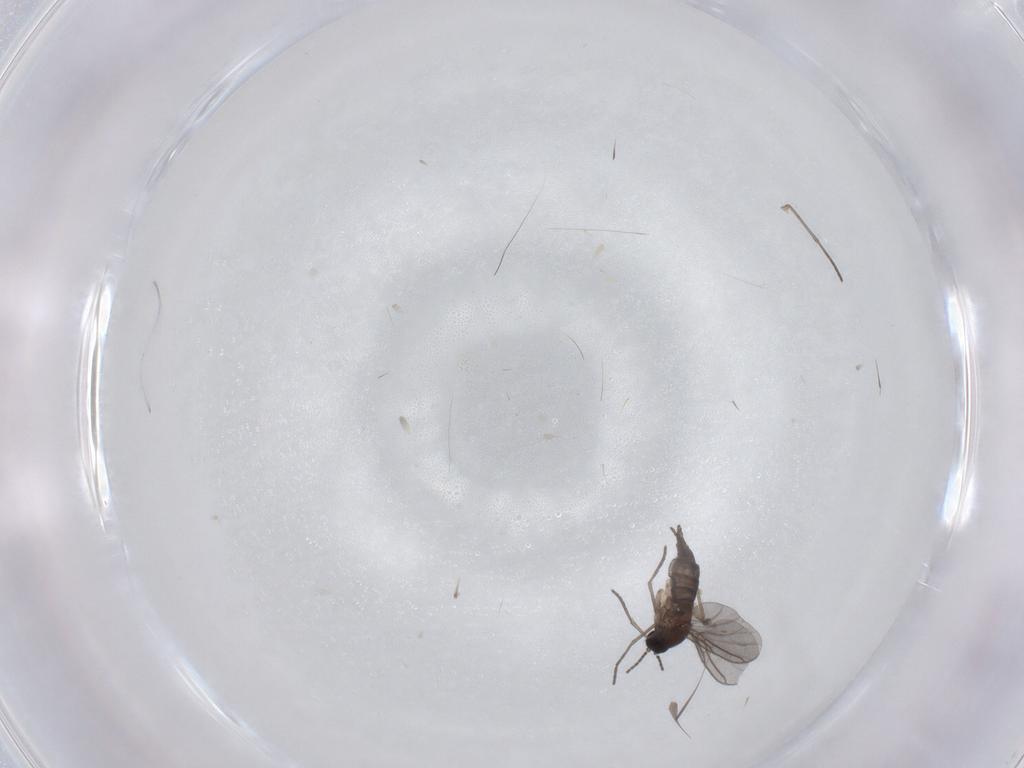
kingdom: Animalia
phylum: Arthropoda
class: Insecta
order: Diptera
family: Sciaridae
